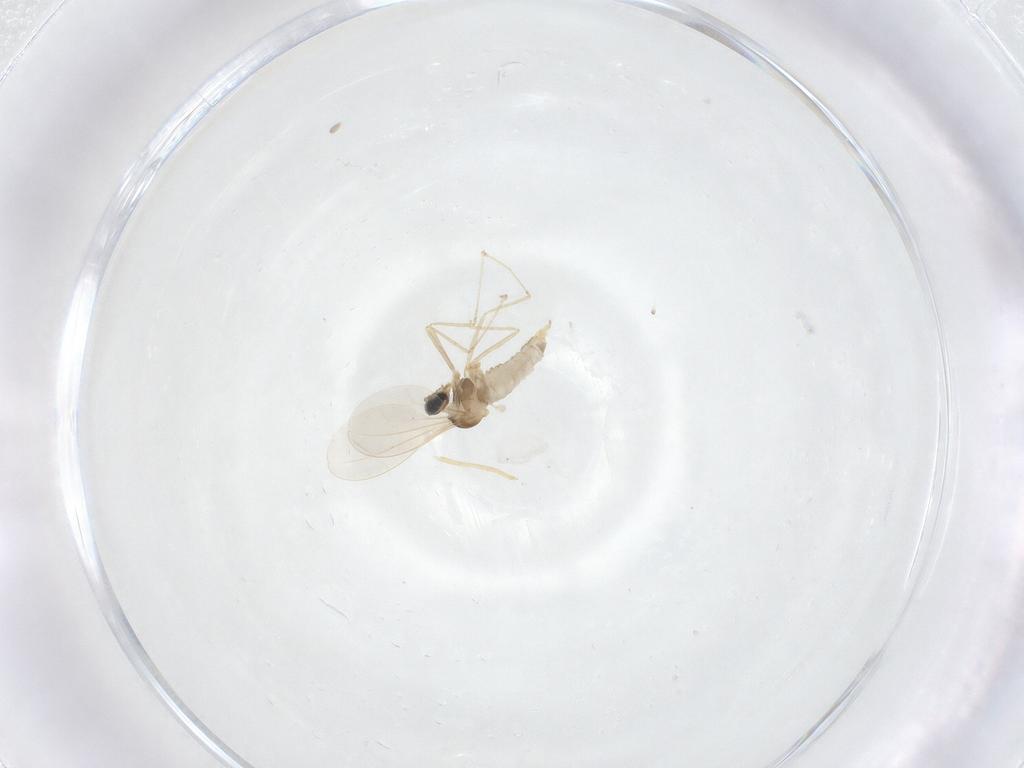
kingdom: Animalia
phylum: Arthropoda
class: Insecta
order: Diptera
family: Cecidomyiidae
